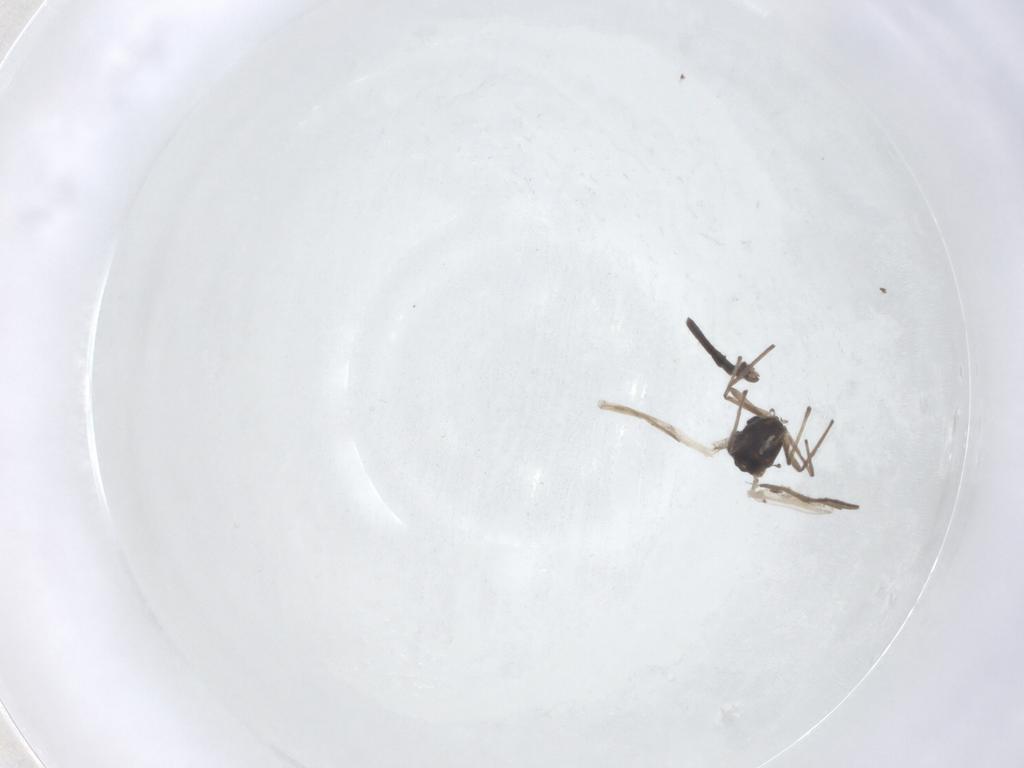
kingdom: Animalia
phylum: Arthropoda
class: Insecta
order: Diptera
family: Chironomidae
